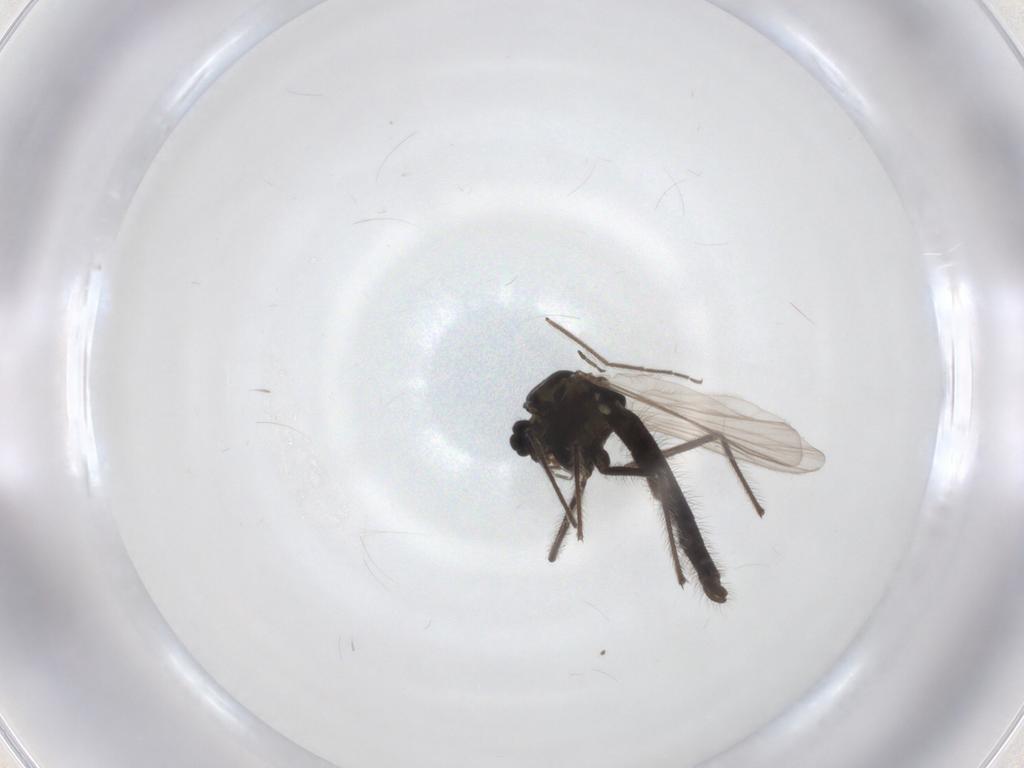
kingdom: Animalia
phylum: Arthropoda
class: Insecta
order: Diptera
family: Chironomidae
